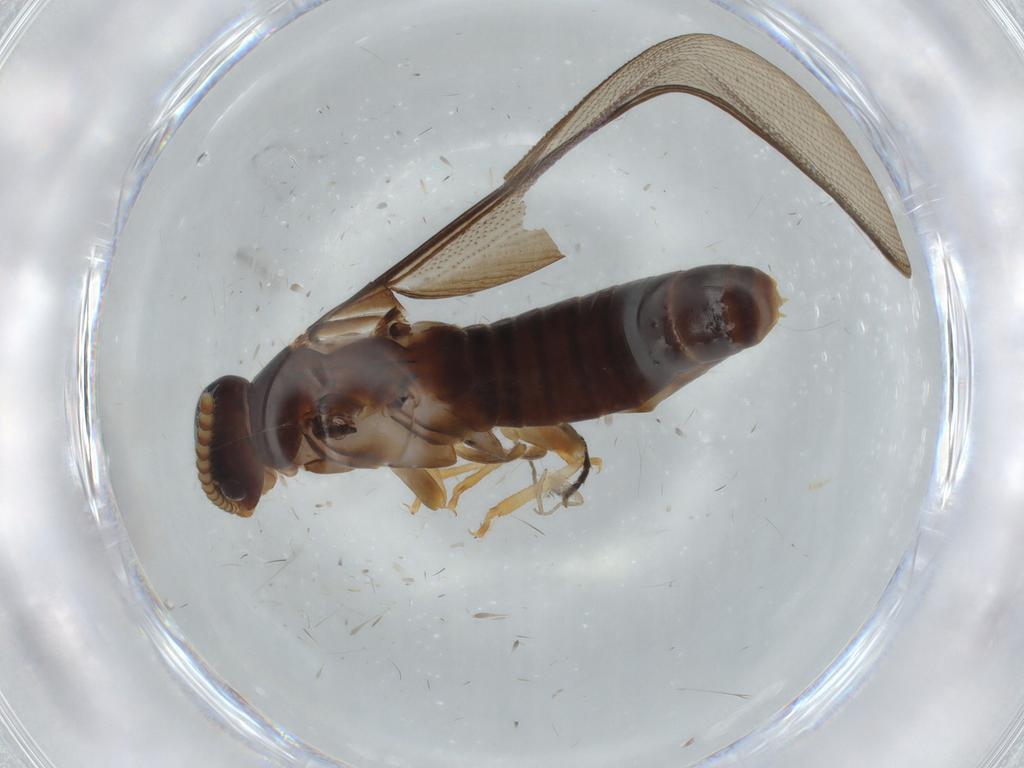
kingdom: Animalia
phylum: Arthropoda
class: Insecta
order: Blattodea
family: Kalotermitidae
